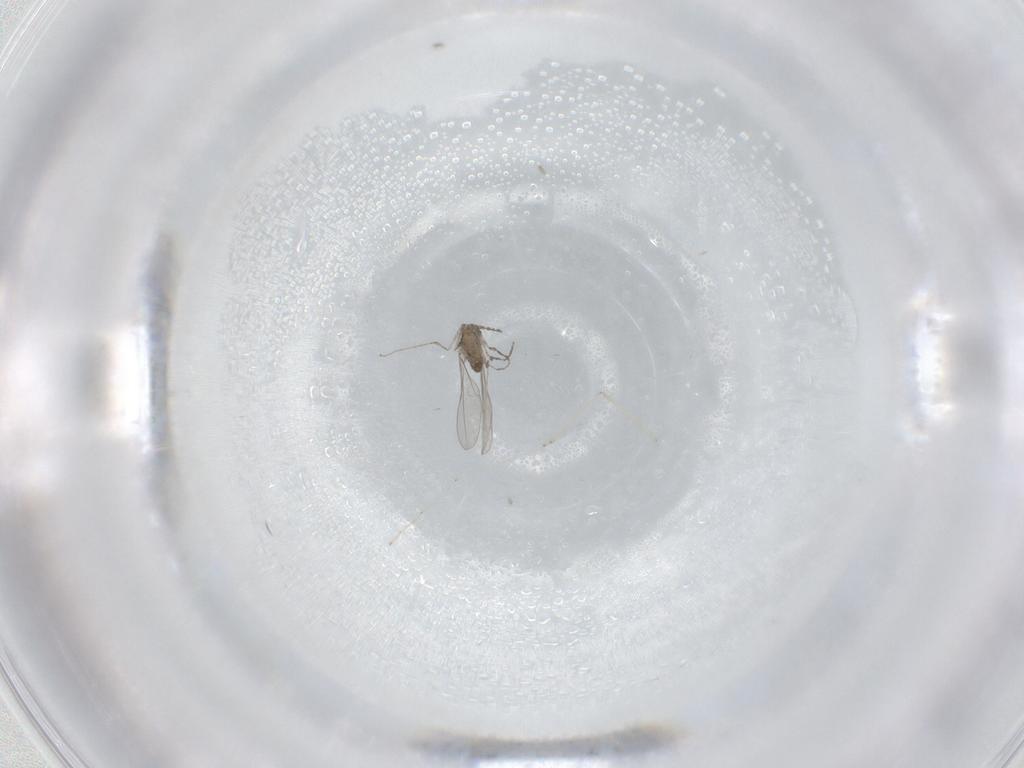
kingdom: Animalia
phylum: Arthropoda
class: Insecta
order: Diptera
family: Cecidomyiidae
